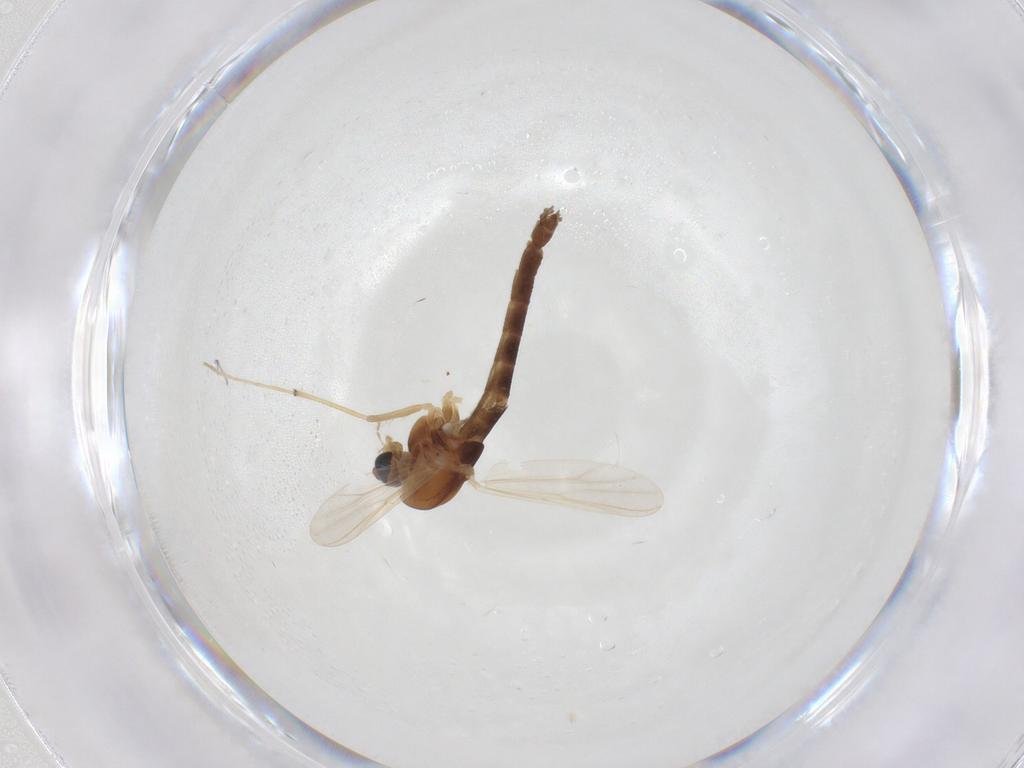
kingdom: Animalia
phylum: Arthropoda
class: Insecta
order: Diptera
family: Chironomidae
